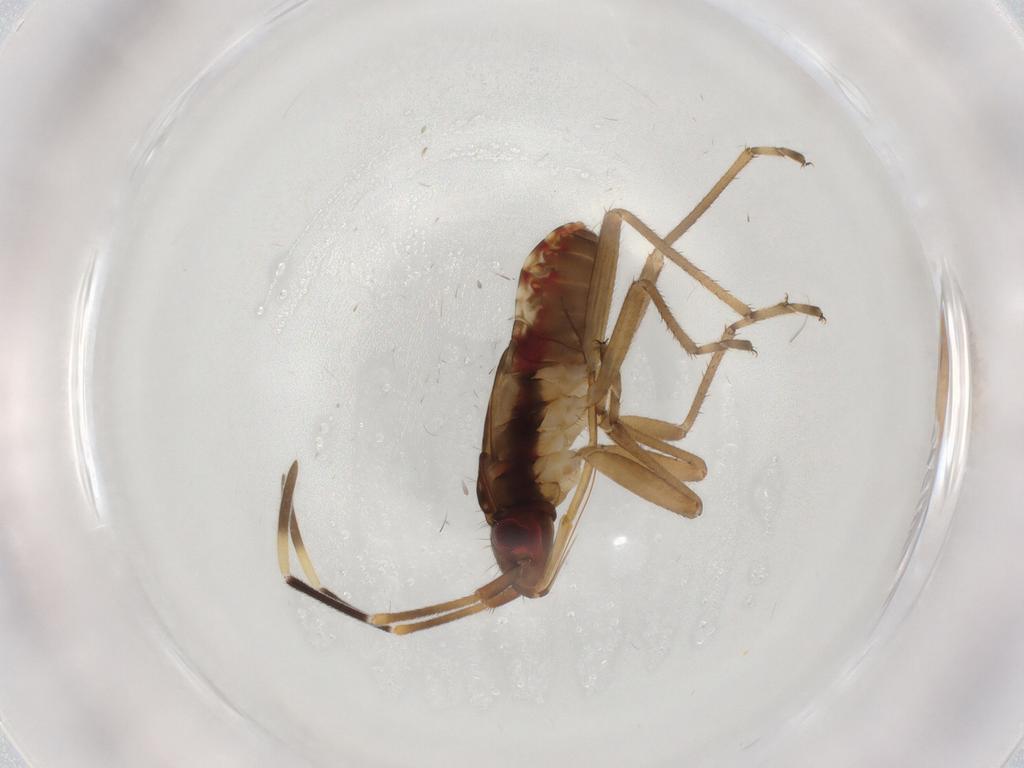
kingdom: Animalia
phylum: Arthropoda
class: Insecta
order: Hemiptera
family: Rhyparochromidae
